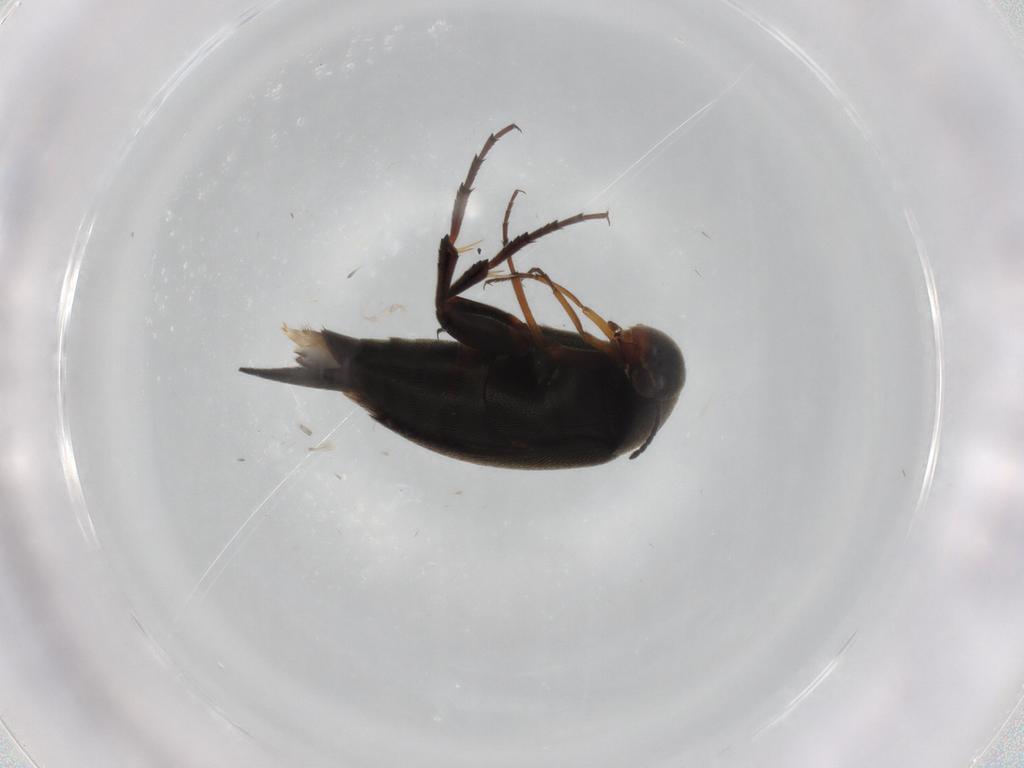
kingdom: Animalia
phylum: Arthropoda
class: Insecta
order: Coleoptera
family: Mordellidae
